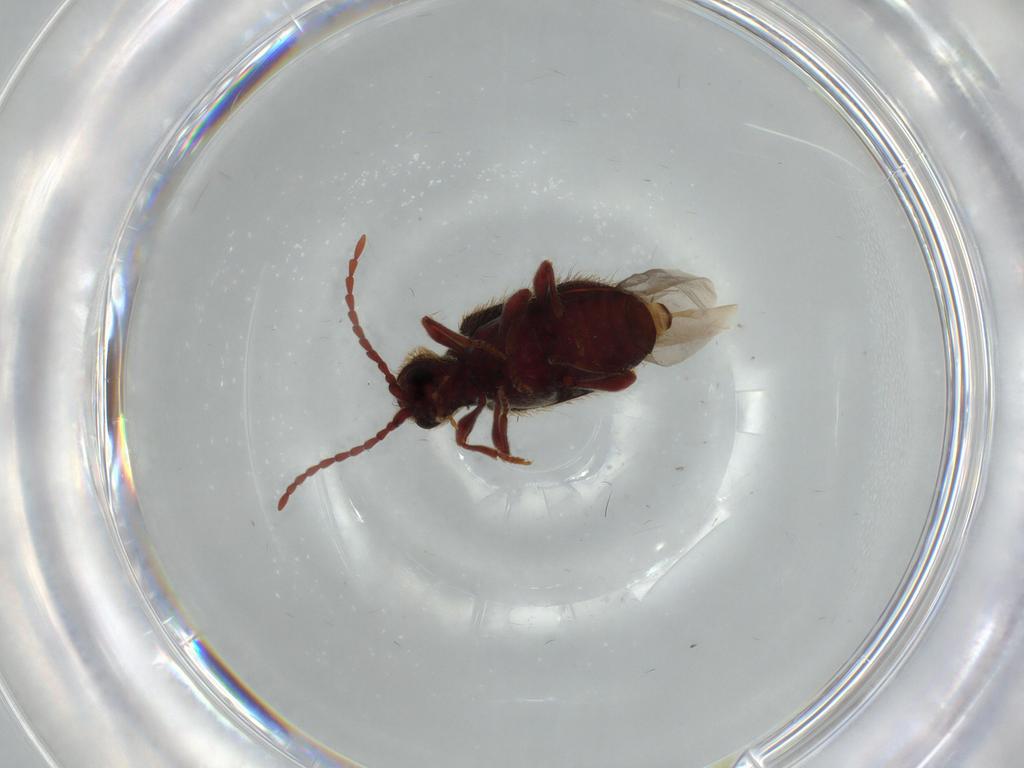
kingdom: Animalia
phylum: Arthropoda
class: Insecta
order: Coleoptera
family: Ptinidae
